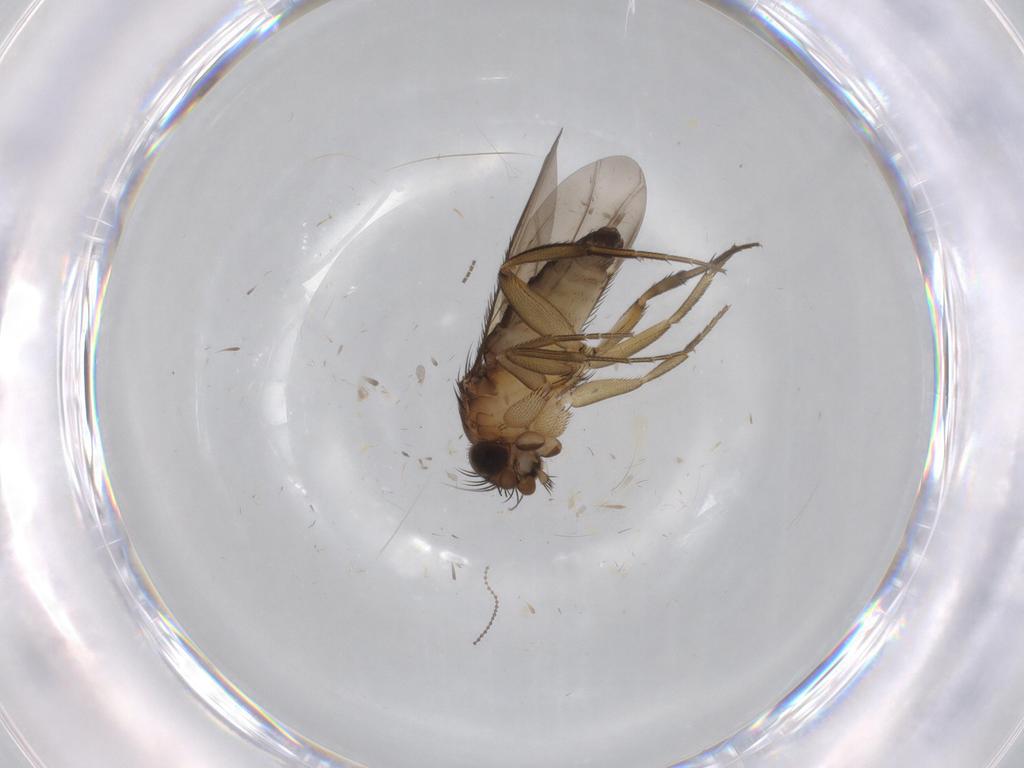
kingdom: Animalia
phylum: Arthropoda
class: Insecta
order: Diptera
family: Phoridae
